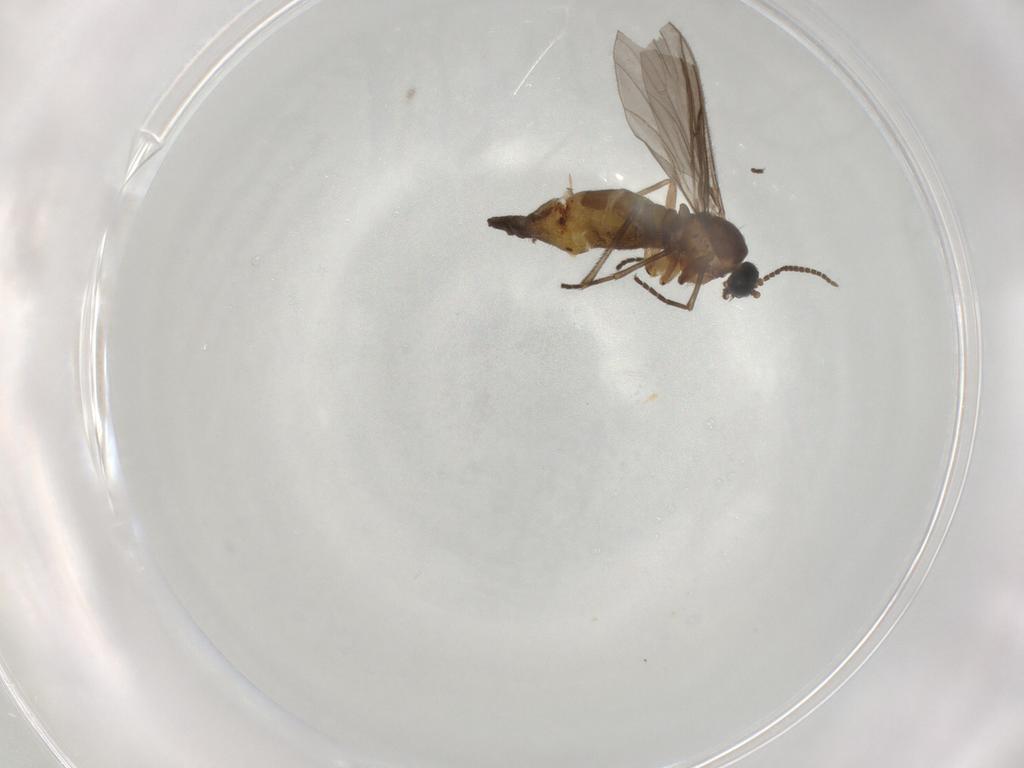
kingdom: Animalia
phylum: Arthropoda
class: Insecta
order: Diptera
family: Sciaridae
